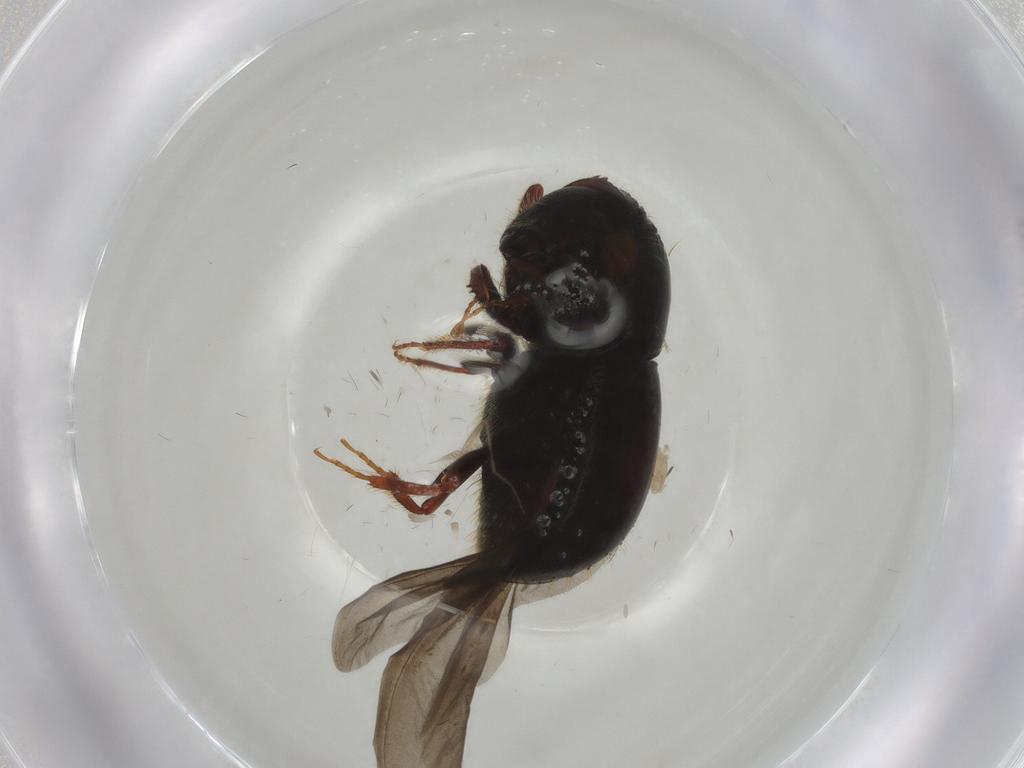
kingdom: Animalia
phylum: Arthropoda
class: Insecta
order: Coleoptera
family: Curculionidae
